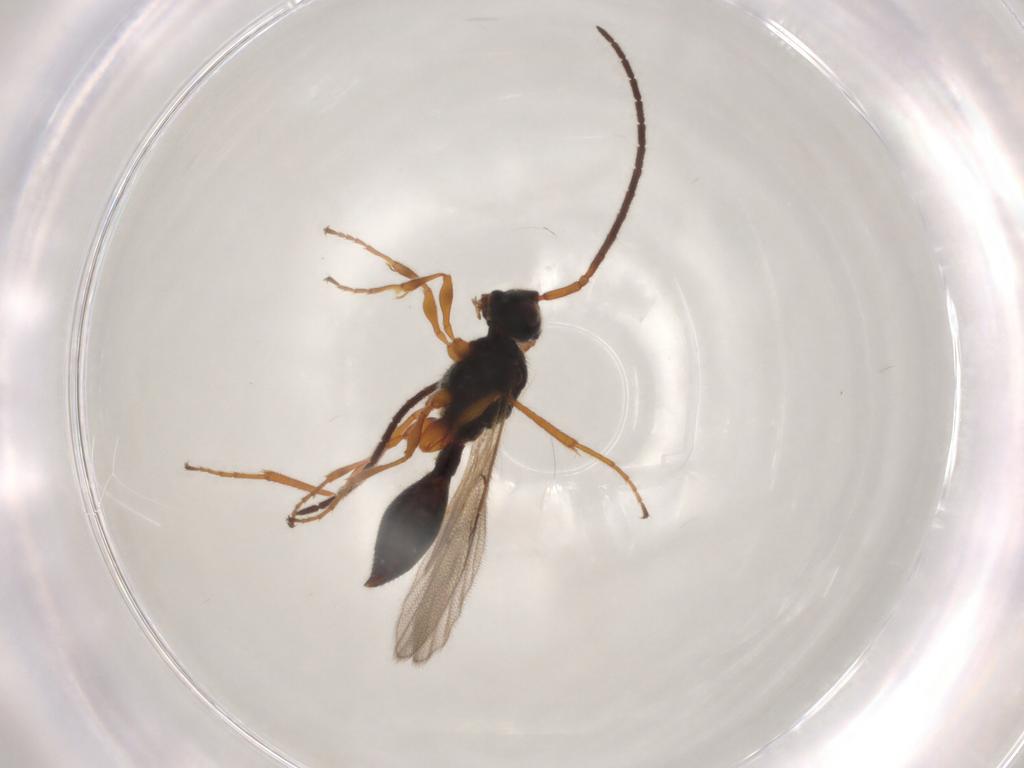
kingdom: Animalia
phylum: Arthropoda
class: Insecta
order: Hymenoptera
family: Diapriidae
